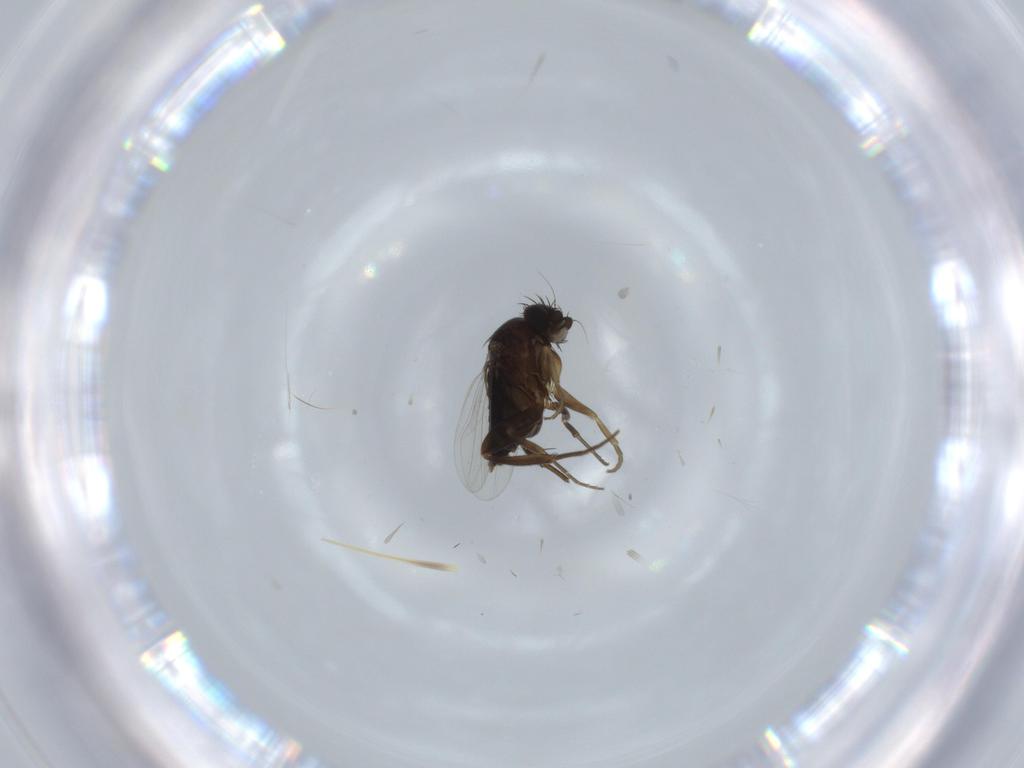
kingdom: Animalia
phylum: Arthropoda
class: Insecta
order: Diptera
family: Phoridae
